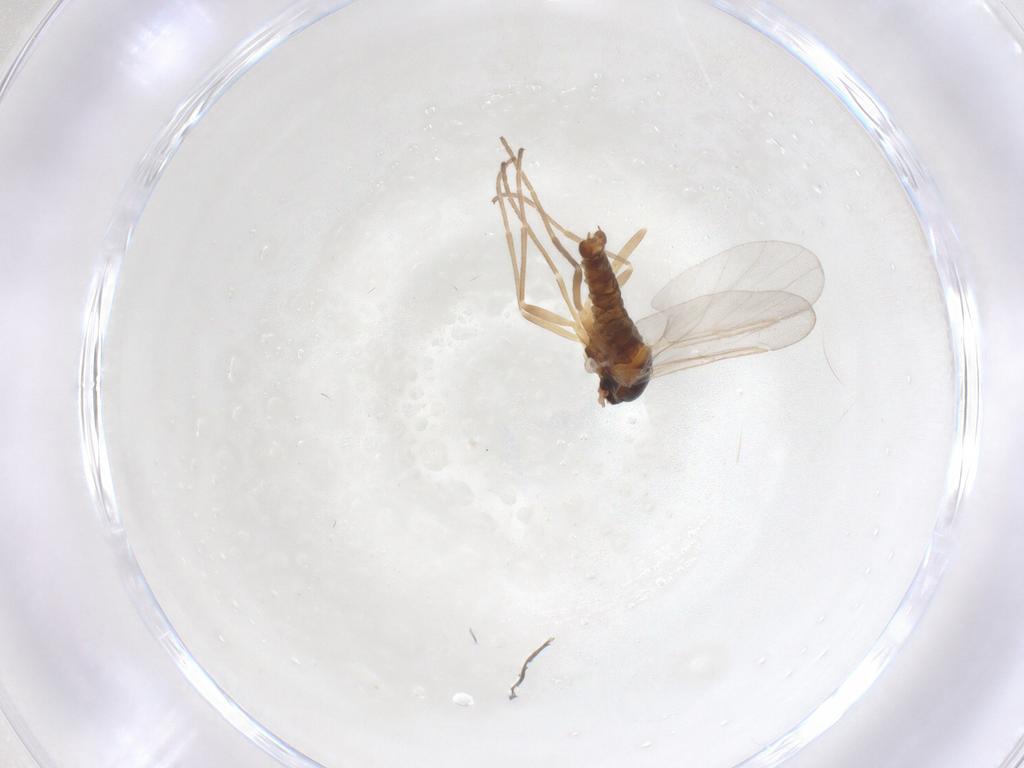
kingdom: Animalia
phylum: Arthropoda
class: Insecta
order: Diptera
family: Cecidomyiidae
